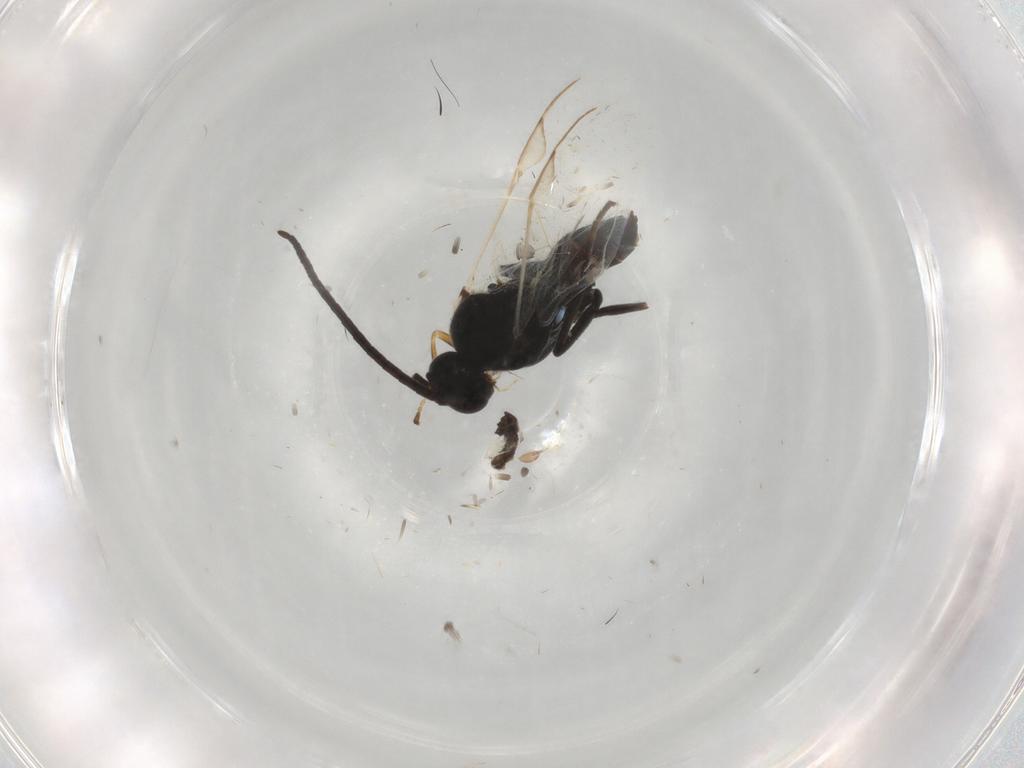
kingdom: Animalia
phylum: Arthropoda
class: Insecta
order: Hymenoptera
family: Braconidae
